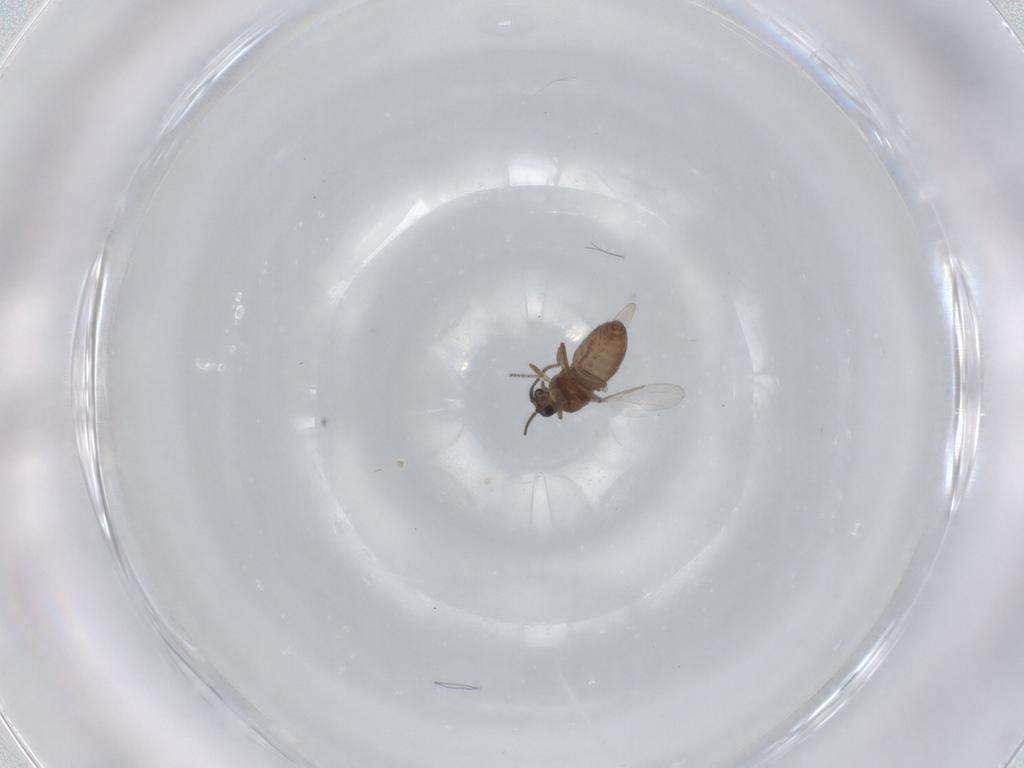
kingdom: Animalia
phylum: Arthropoda
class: Insecta
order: Diptera
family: Ceratopogonidae
